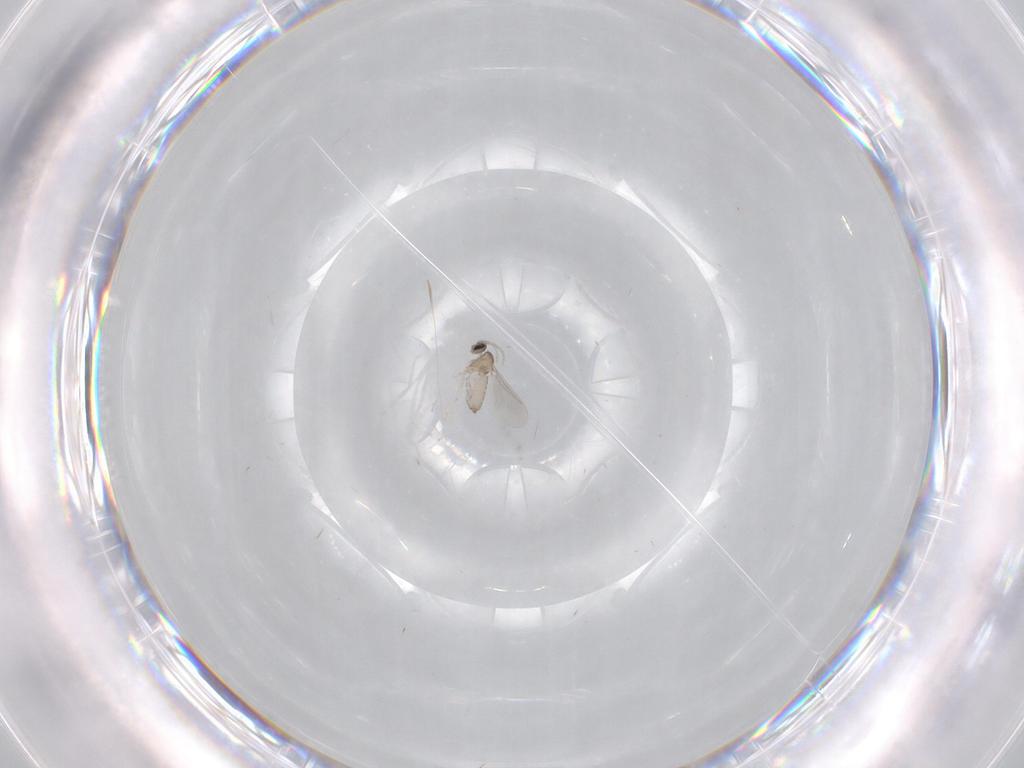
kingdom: Animalia
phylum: Arthropoda
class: Insecta
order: Diptera
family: Cecidomyiidae
